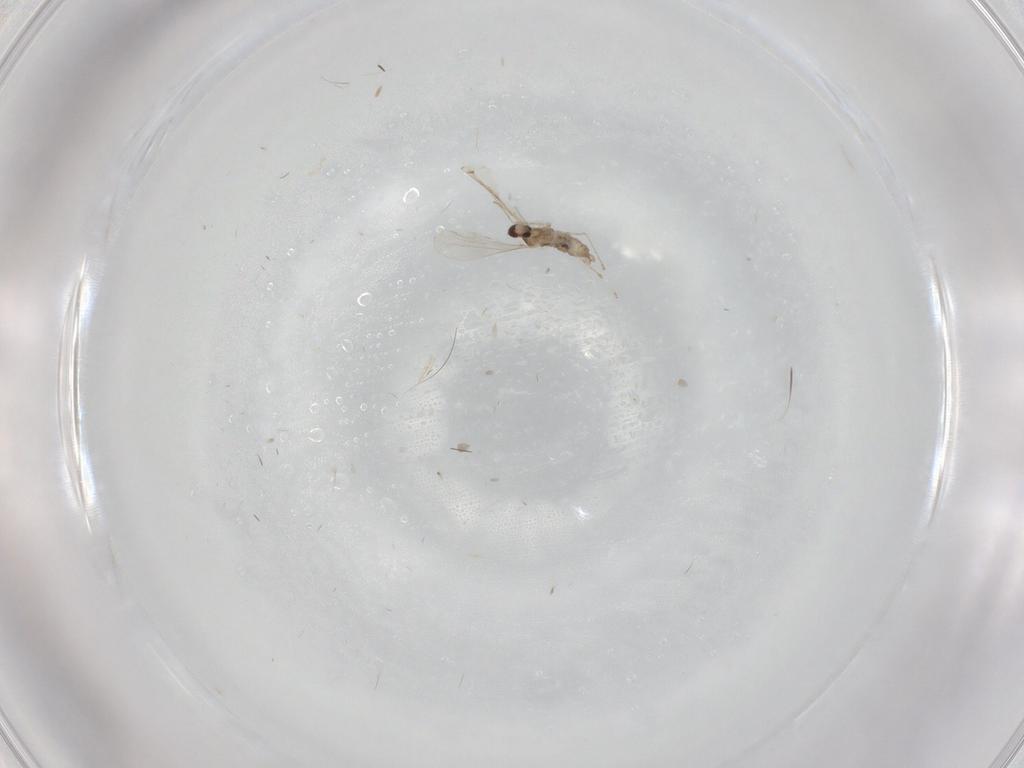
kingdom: Animalia
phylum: Arthropoda
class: Insecta
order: Diptera
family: Cecidomyiidae
